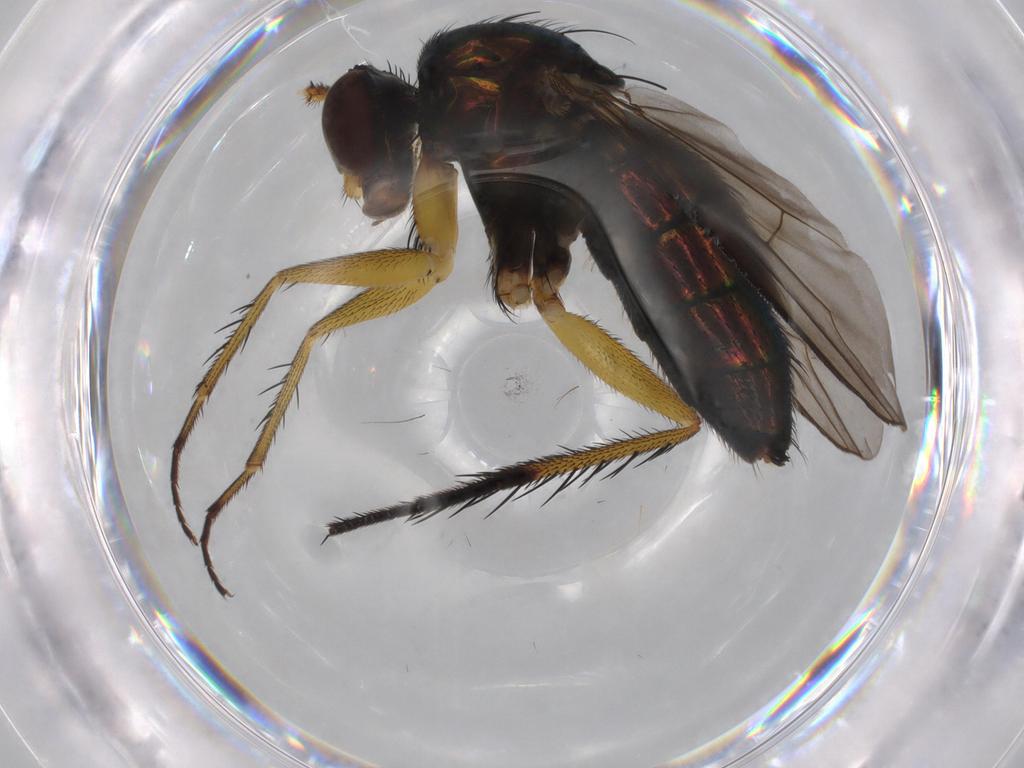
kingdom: Animalia
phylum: Arthropoda
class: Insecta
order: Diptera
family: Dolichopodidae
